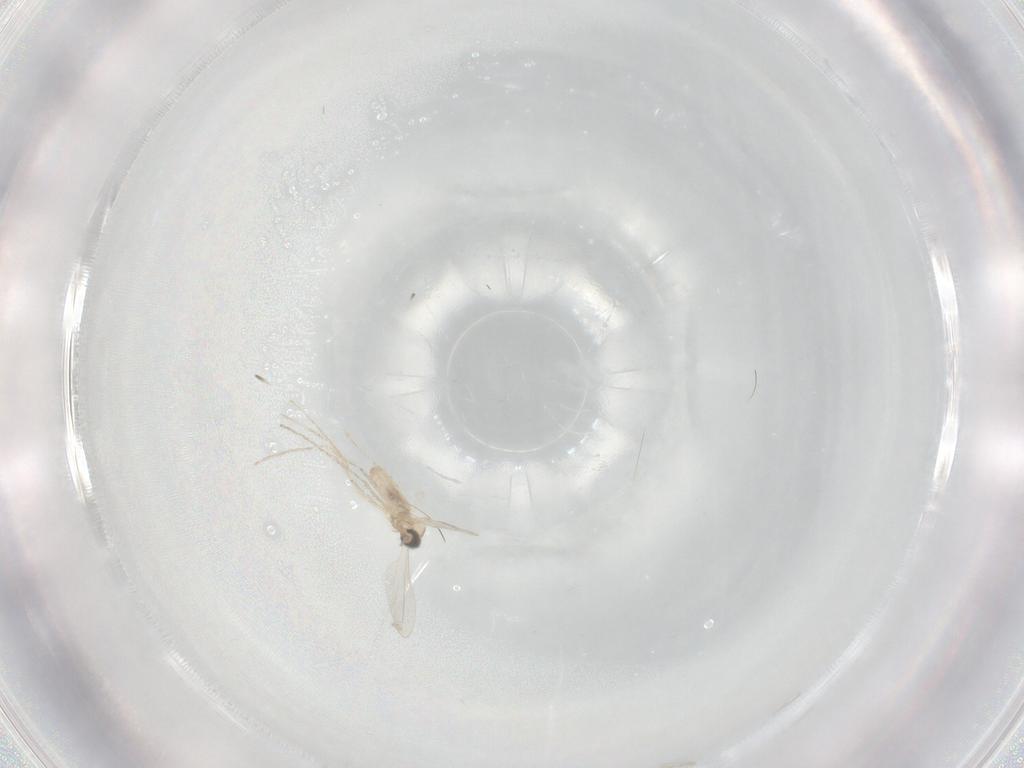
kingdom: Animalia
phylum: Arthropoda
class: Insecta
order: Diptera
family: Cecidomyiidae
